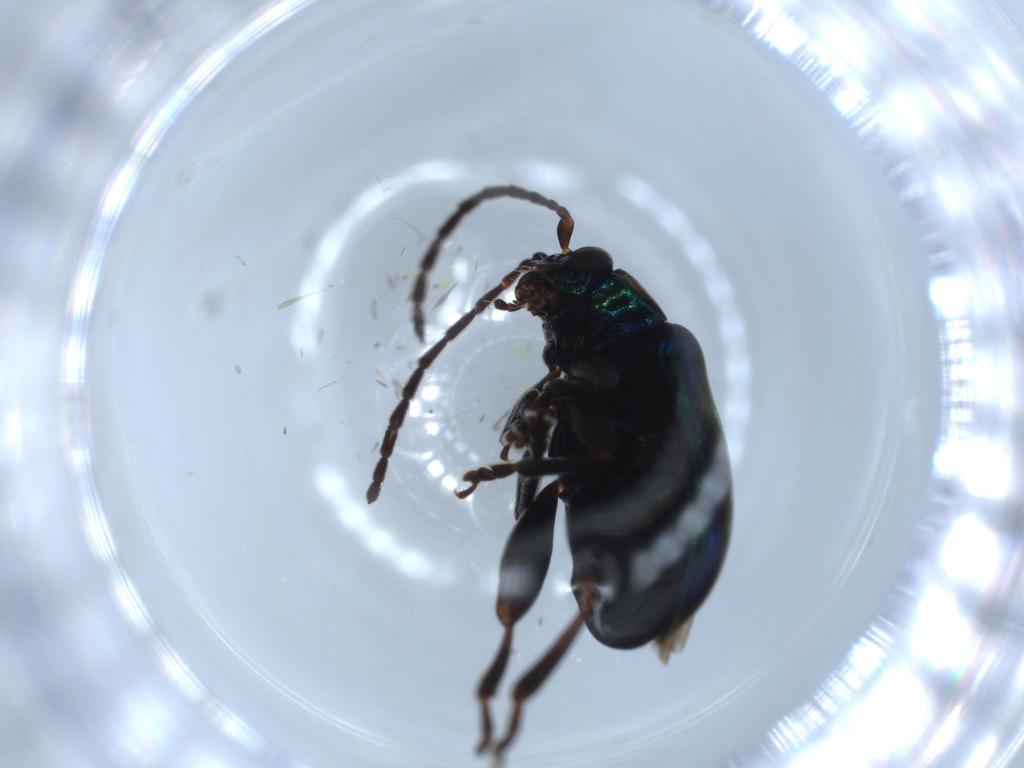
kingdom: Animalia
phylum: Arthropoda
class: Insecta
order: Coleoptera
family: Chrysomelidae
